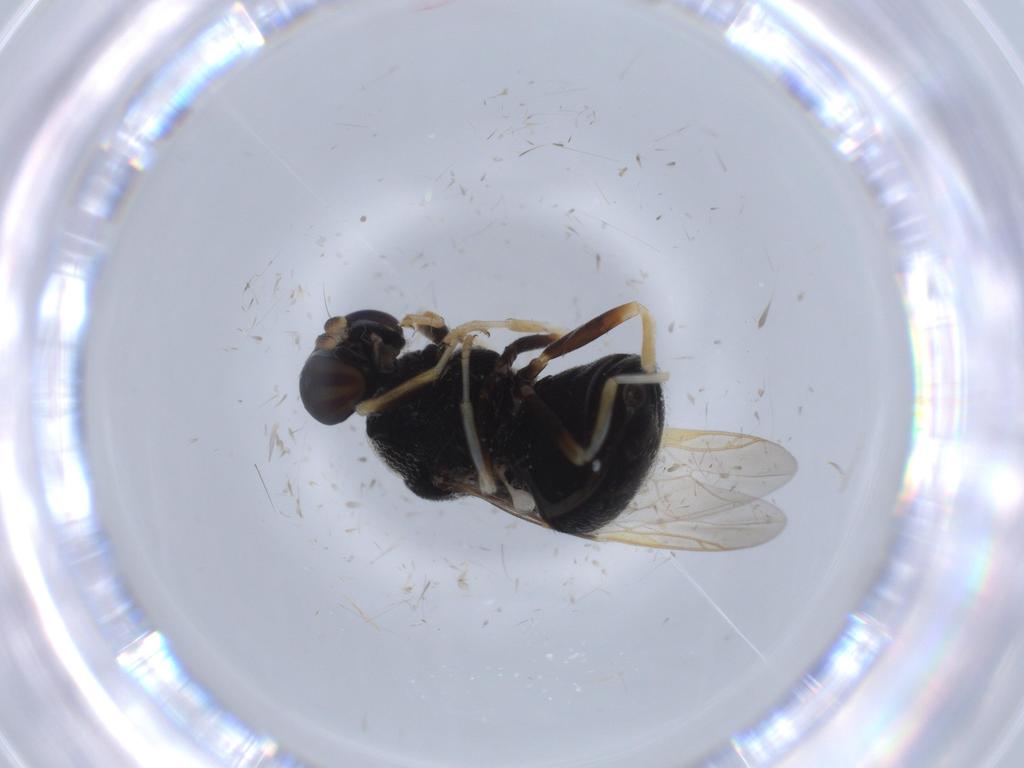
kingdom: Animalia
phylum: Arthropoda
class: Insecta
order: Diptera
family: Stratiomyidae
